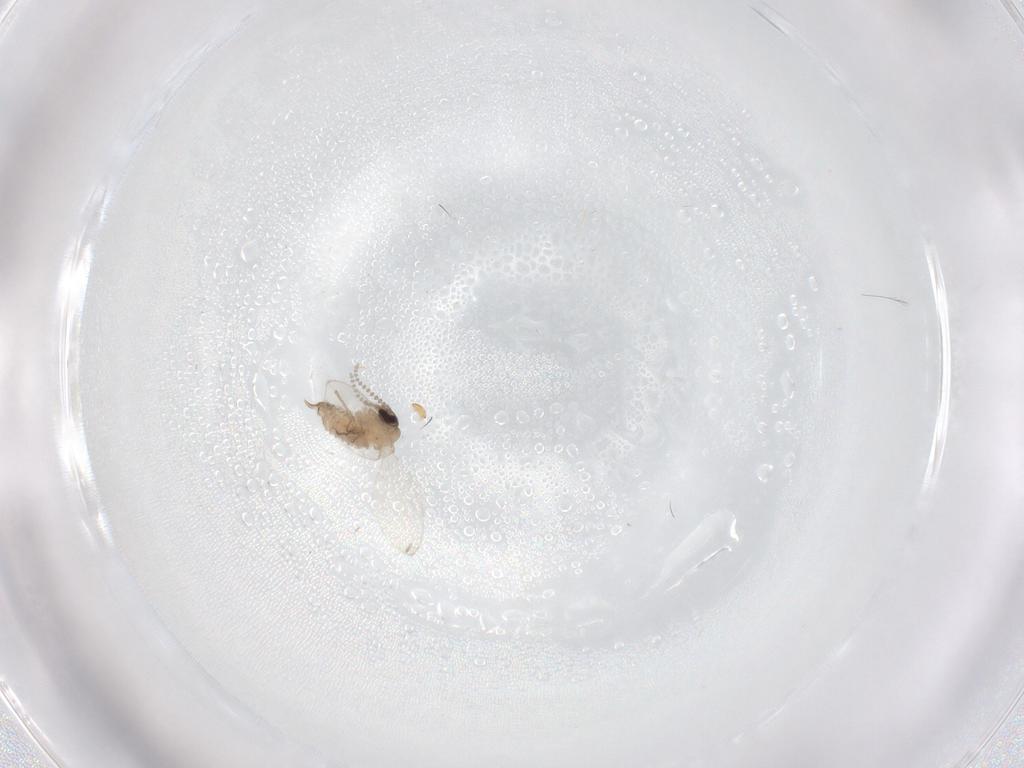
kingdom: Animalia
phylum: Arthropoda
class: Insecta
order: Diptera
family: Psychodidae
